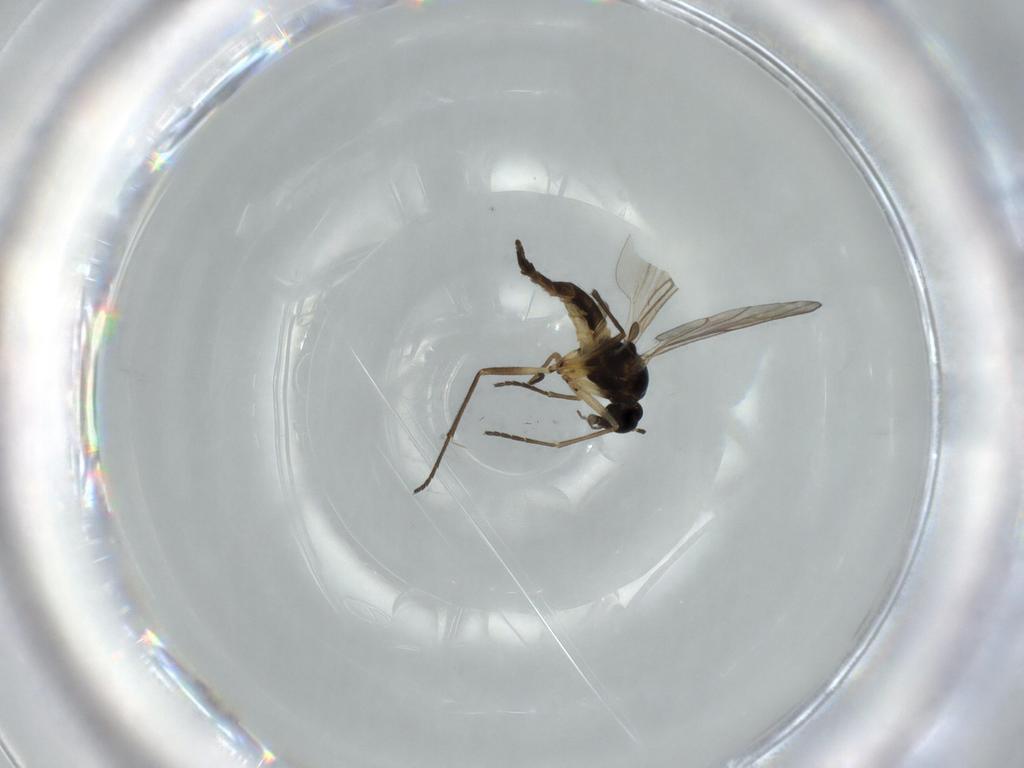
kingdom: Animalia
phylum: Arthropoda
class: Insecta
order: Diptera
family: Sciaridae
